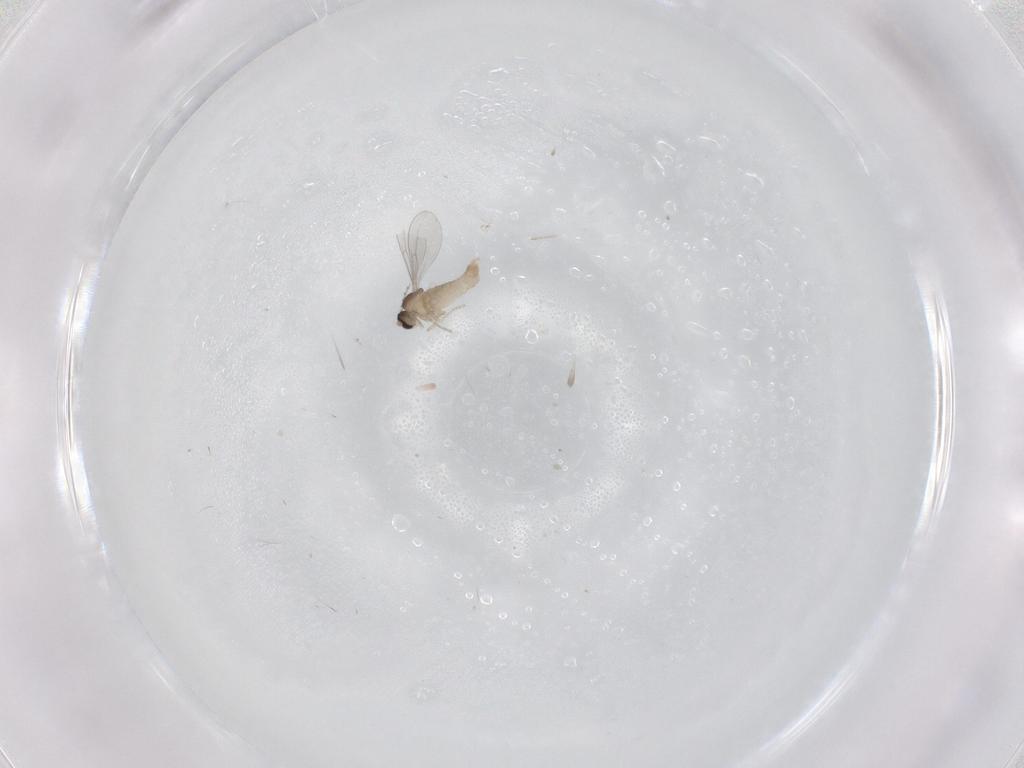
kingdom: Animalia
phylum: Arthropoda
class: Insecta
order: Diptera
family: Cecidomyiidae
